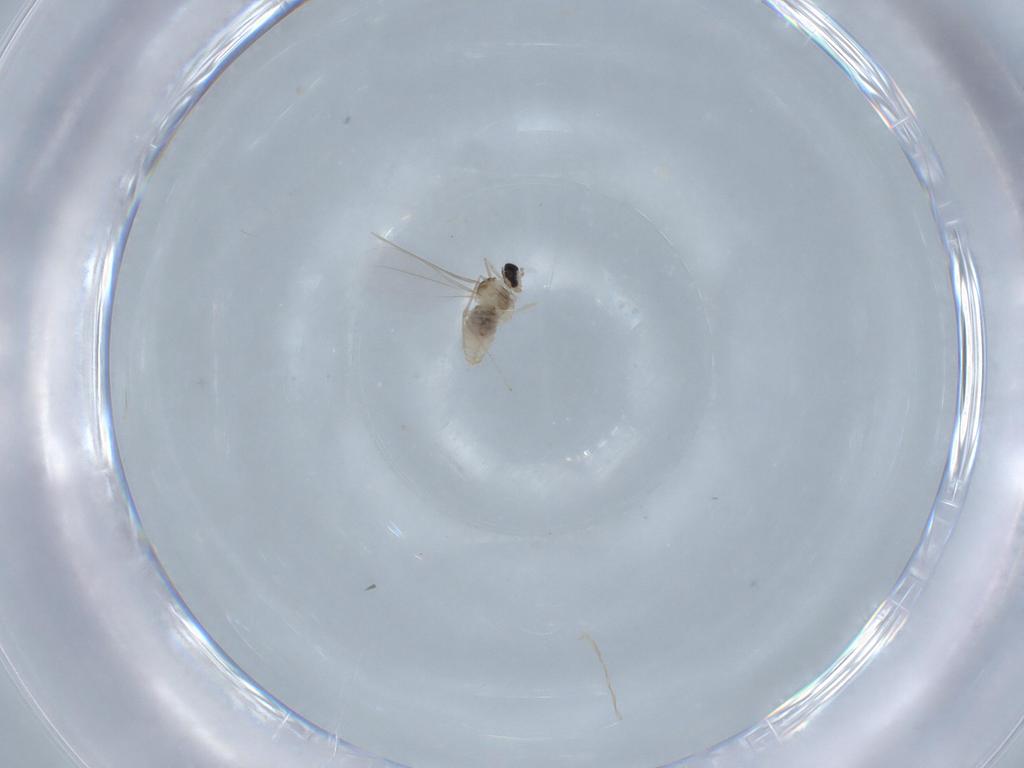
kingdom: Animalia
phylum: Arthropoda
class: Insecta
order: Diptera
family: Cecidomyiidae
